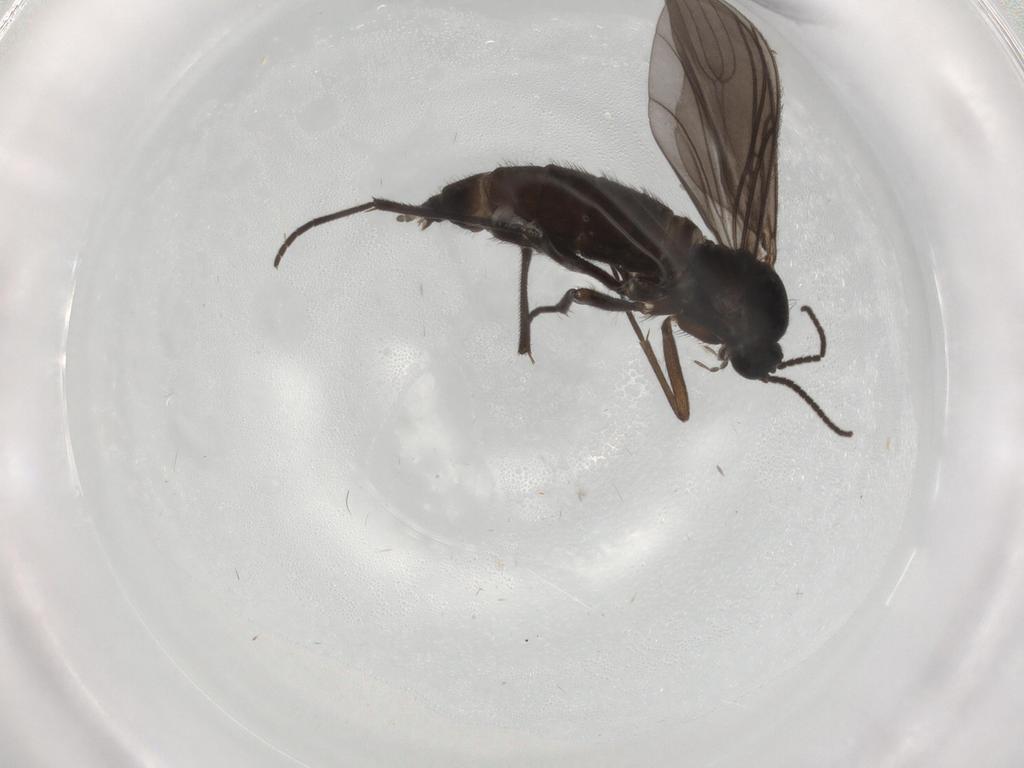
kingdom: Animalia
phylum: Arthropoda
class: Insecta
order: Diptera
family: Sciaridae
